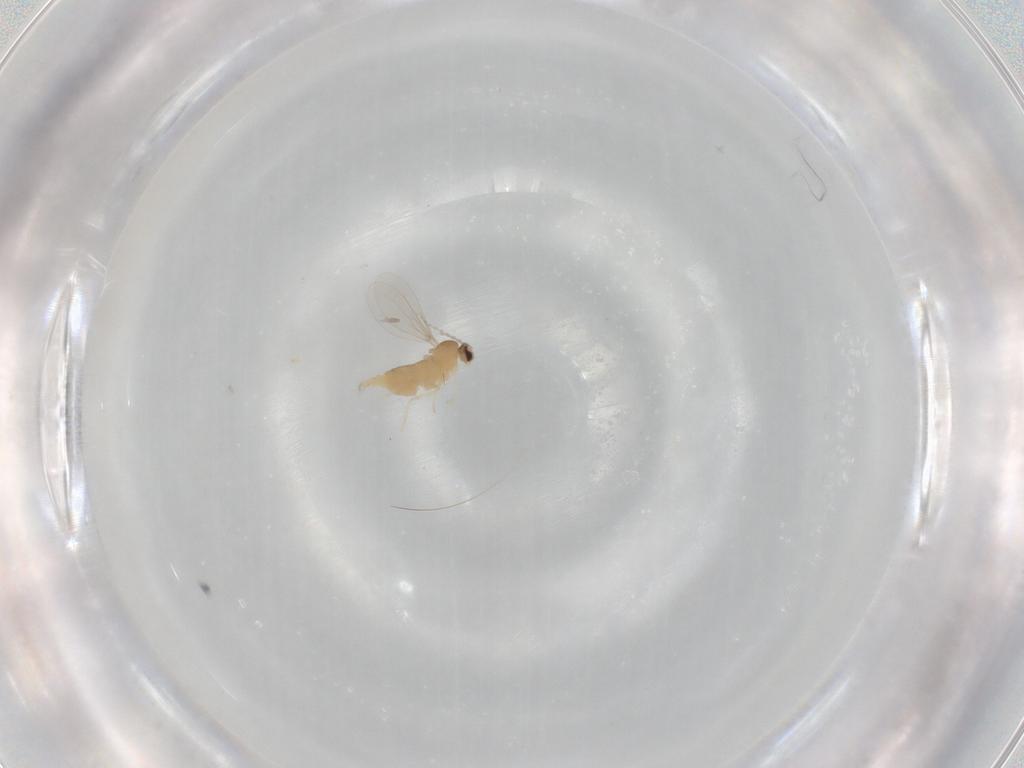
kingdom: Animalia
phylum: Arthropoda
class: Insecta
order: Diptera
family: Cecidomyiidae
